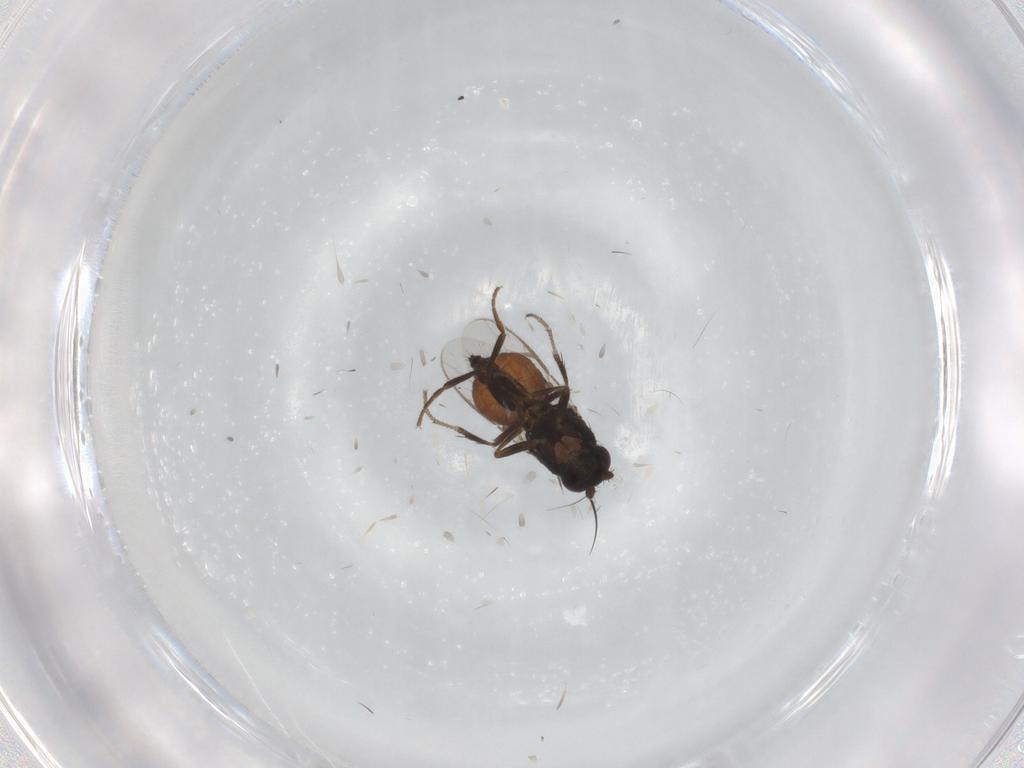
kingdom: Animalia
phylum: Arthropoda
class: Insecta
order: Diptera
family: Sphaeroceridae
